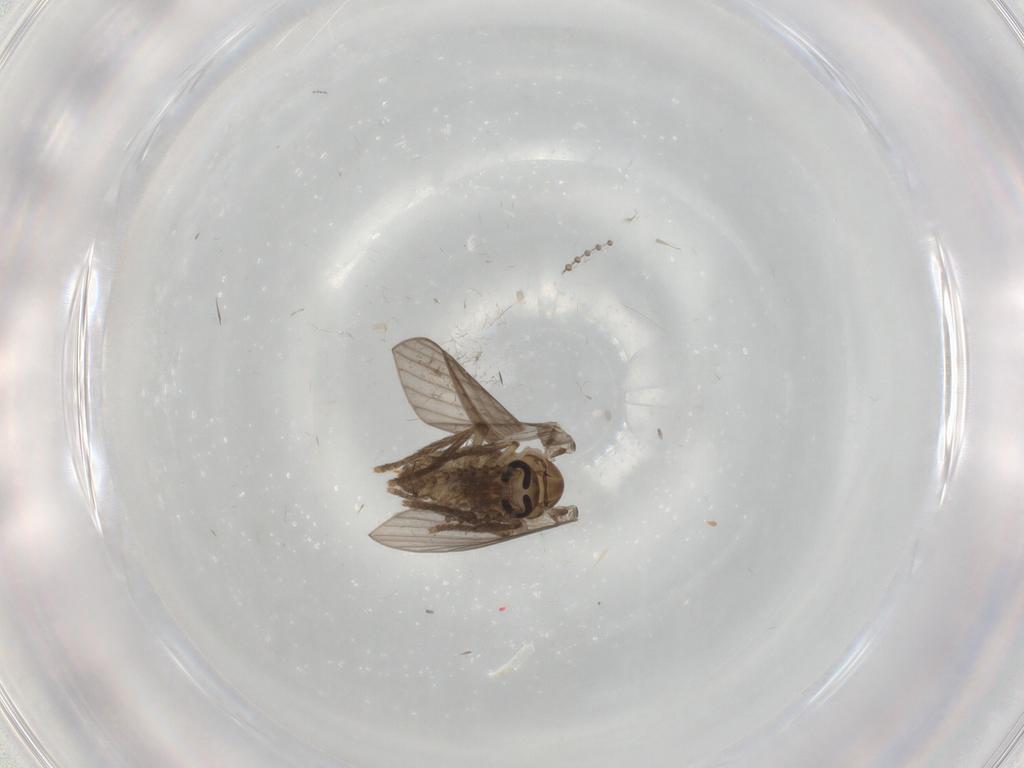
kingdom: Animalia
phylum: Arthropoda
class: Insecta
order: Diptera
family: Psychodidae
